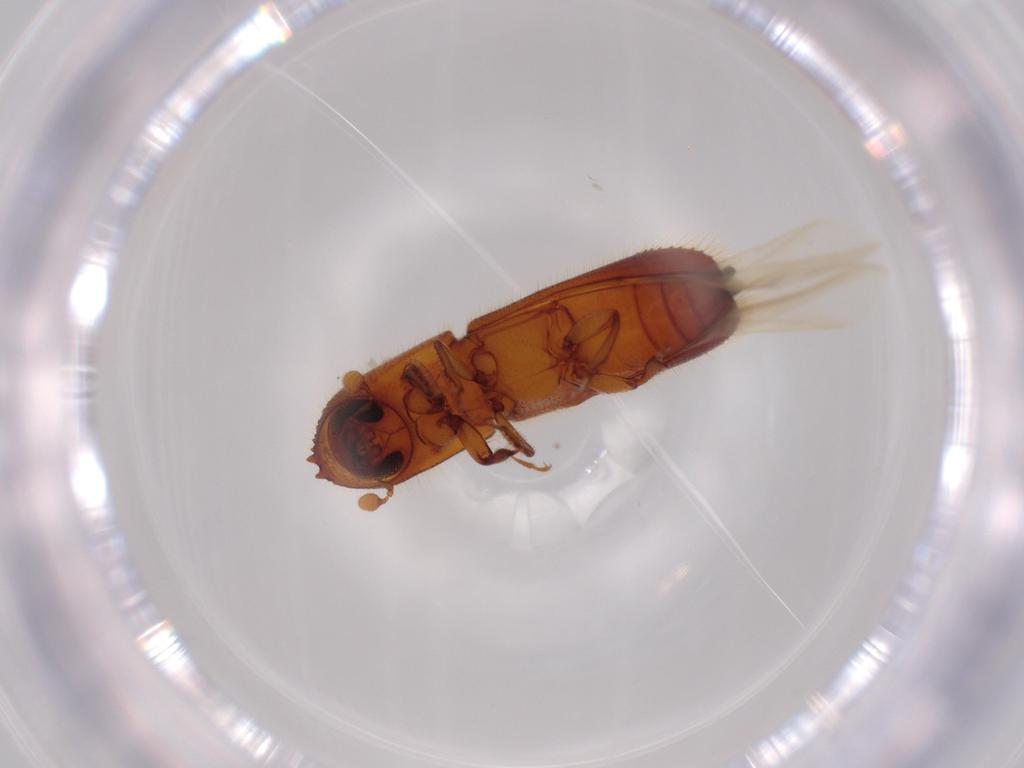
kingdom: Animalia
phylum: Arthropoda
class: Insecta
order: Coleoptera
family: Curculionidae
